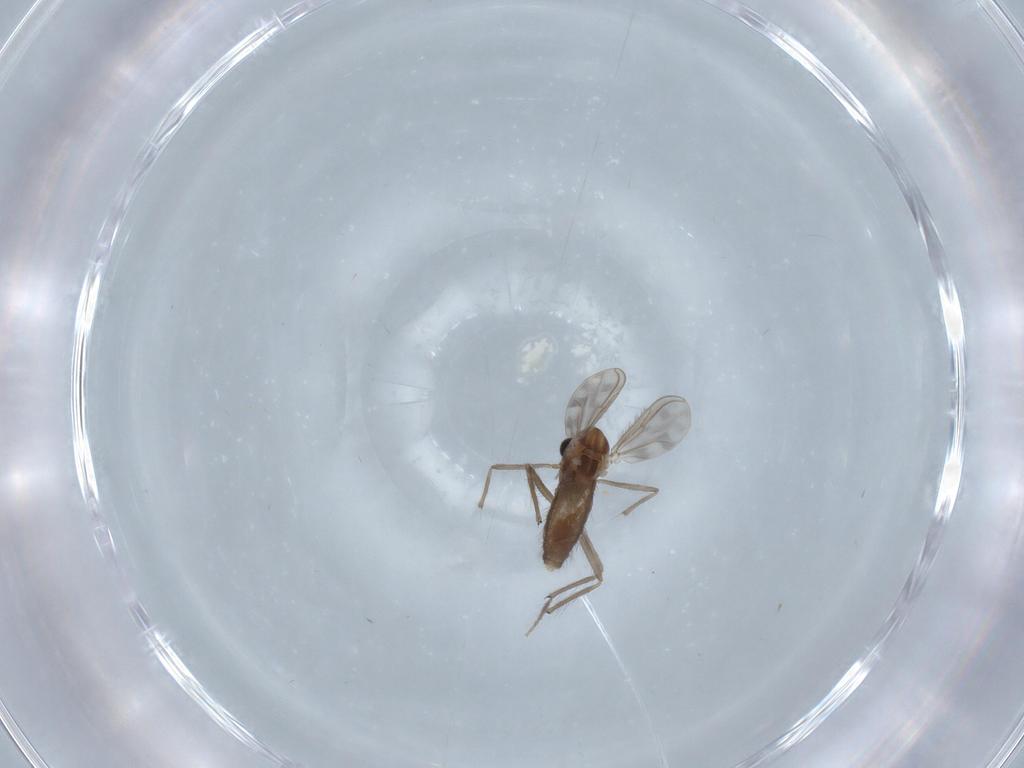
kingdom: Animalia
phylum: Arthropoda
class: Insecta
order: Diptera
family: Chironomidae
